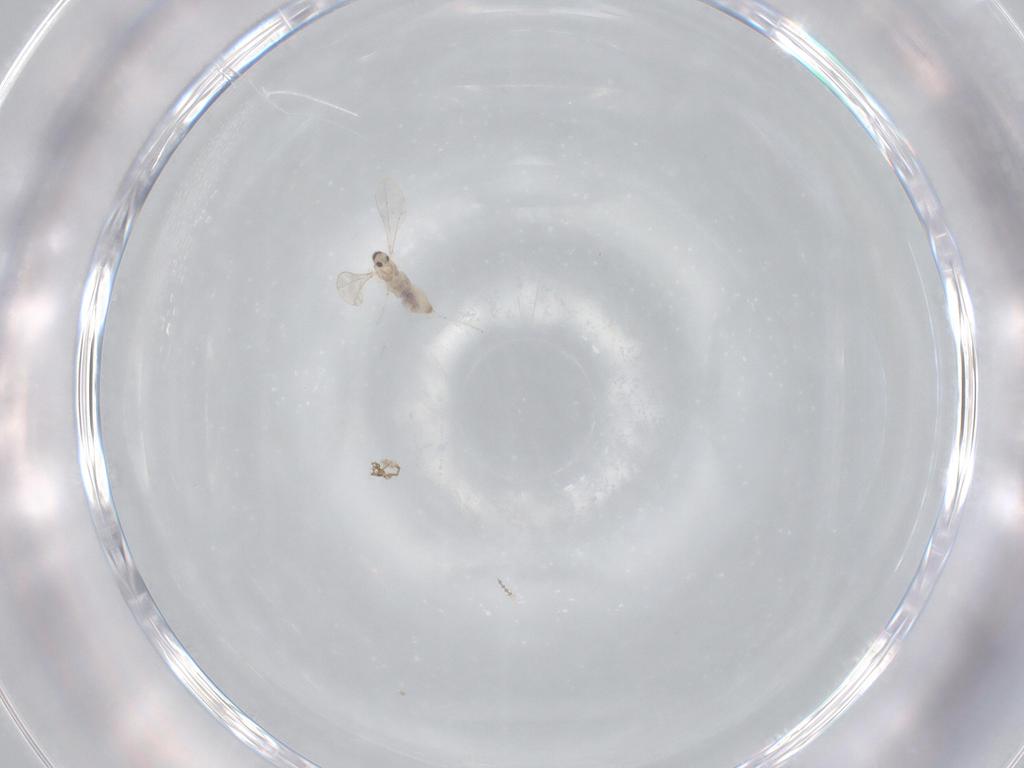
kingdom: Animalia
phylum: Arthropoda
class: Insecta
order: Diptera
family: Cecidomyiidae
